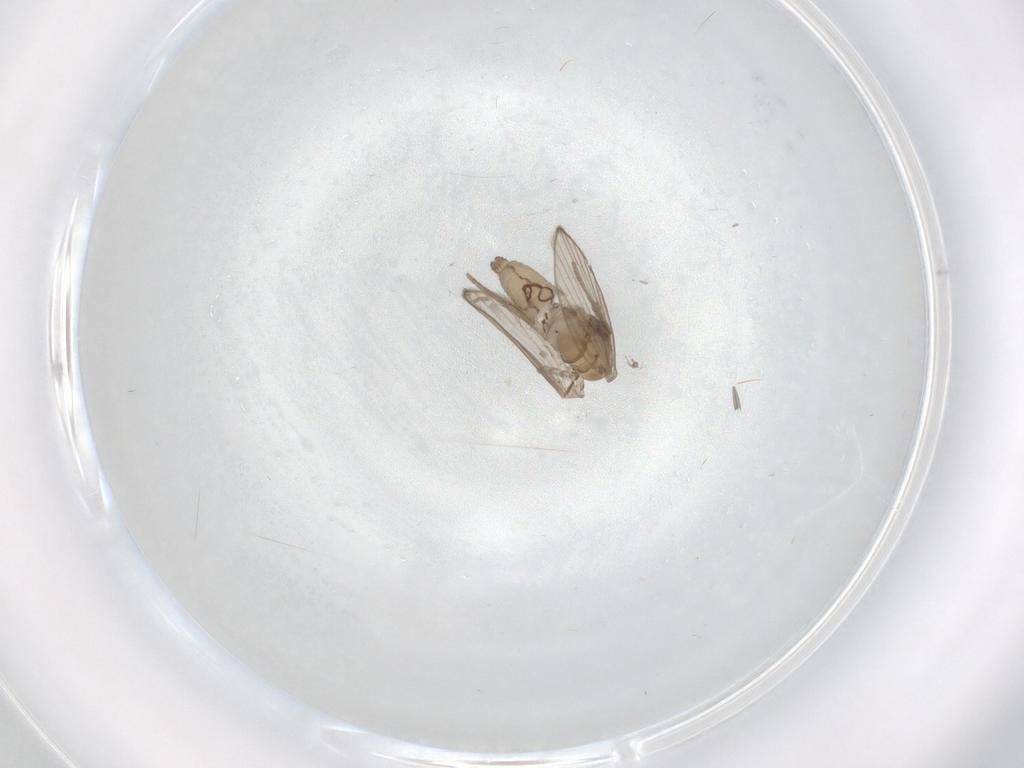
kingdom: Animalia
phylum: Arthropoda
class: Insecta
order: Diptera
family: Psychodidae
